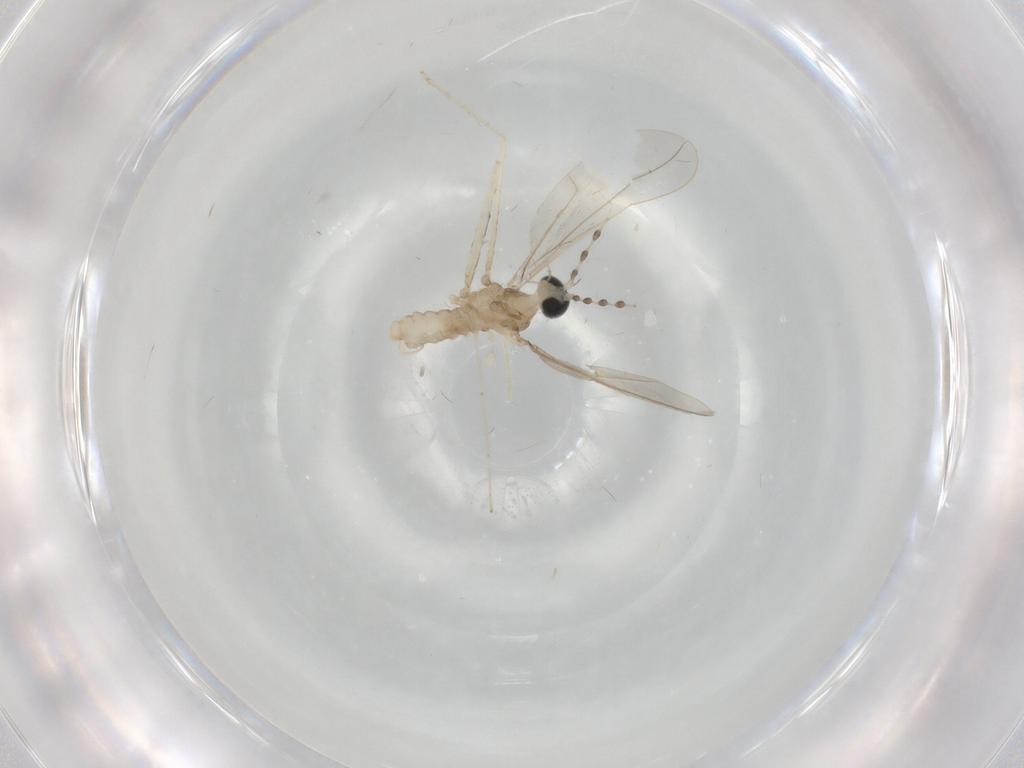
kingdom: Animalia
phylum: Arthropoda
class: Insecta
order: Diptera
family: Cecidomyiidae
